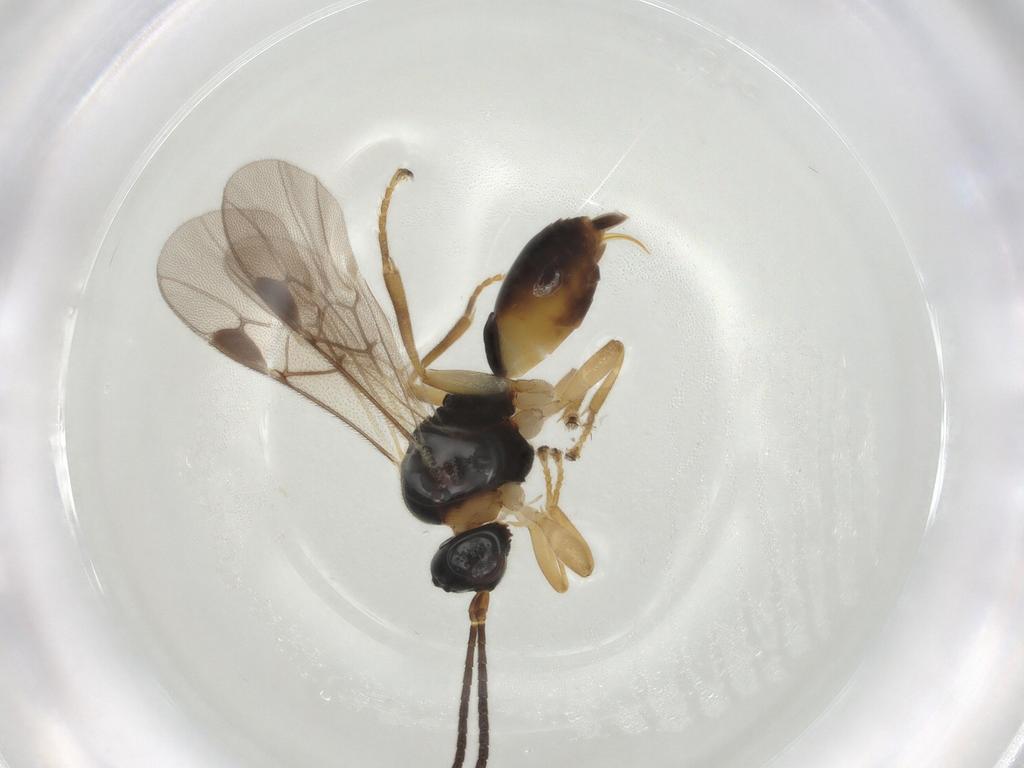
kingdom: Animalia
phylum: Arthropoda
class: Insecta
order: Hymenoptera
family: Braconidae
